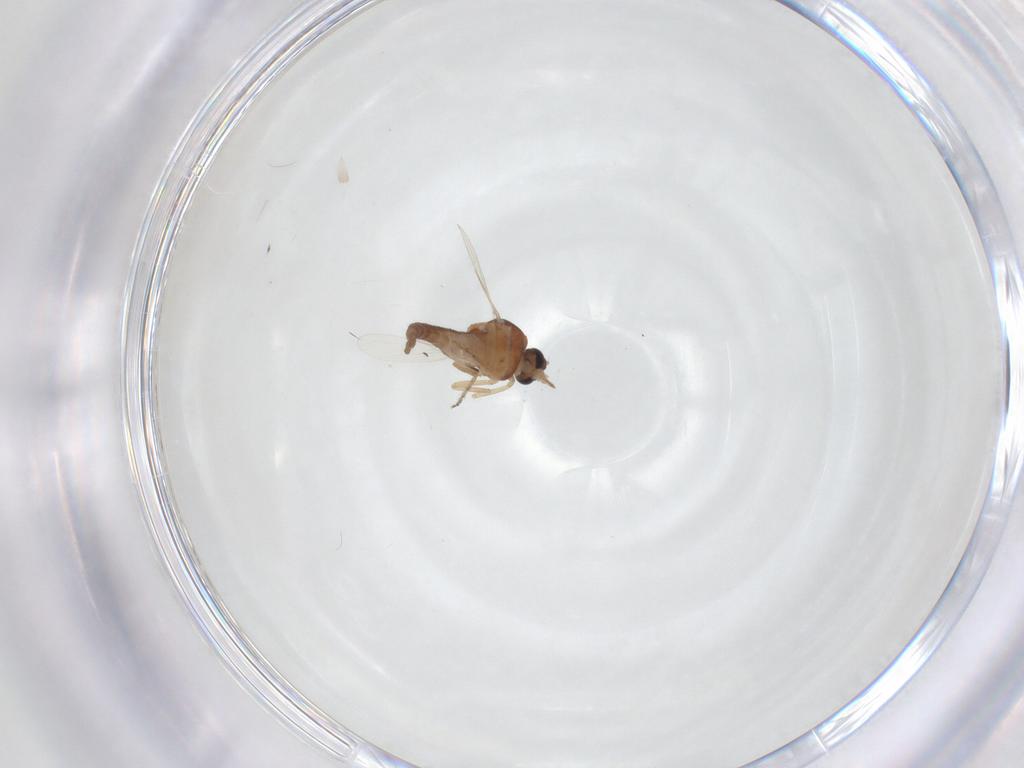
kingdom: Animalia
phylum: Arthropoda
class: Insecta
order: Diptera
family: Ceratopogonidae
